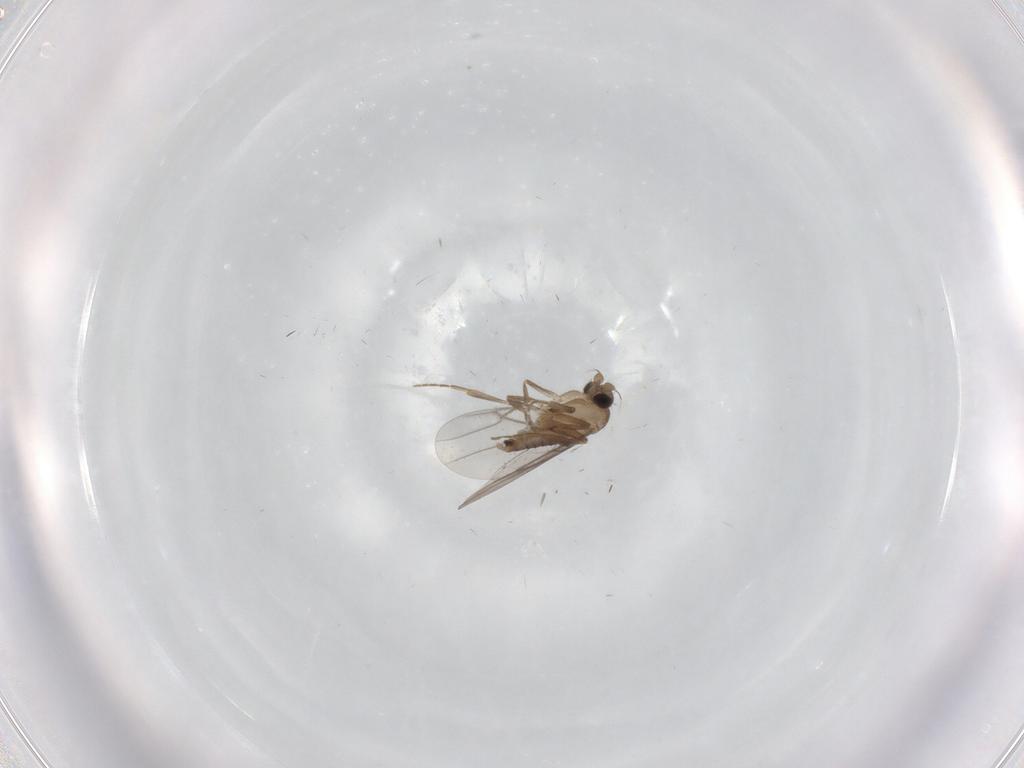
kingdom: Animalia
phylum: Arthropoda
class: Insecta
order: Diptera
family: Cecidomyiidae
